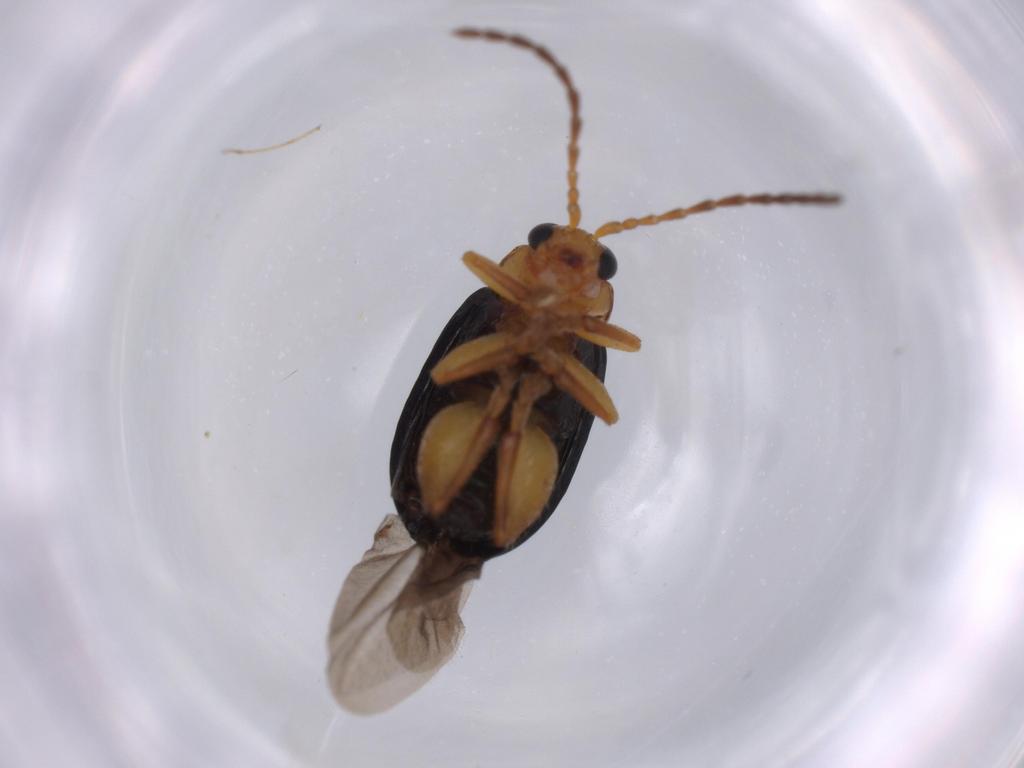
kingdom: Animalia
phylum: Arthropoda
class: Insecta
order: Coleoptera
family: Chrysomelidae
